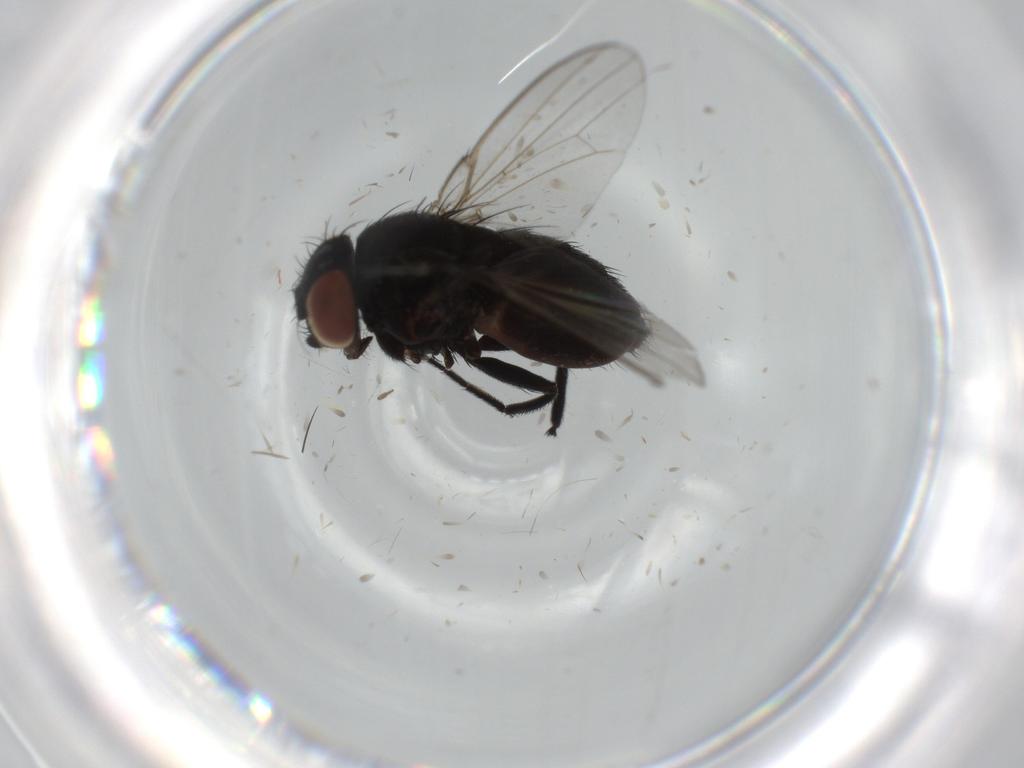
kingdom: Animalia
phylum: Arthropoda
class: Insecta
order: Diptera
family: Milichiidae
